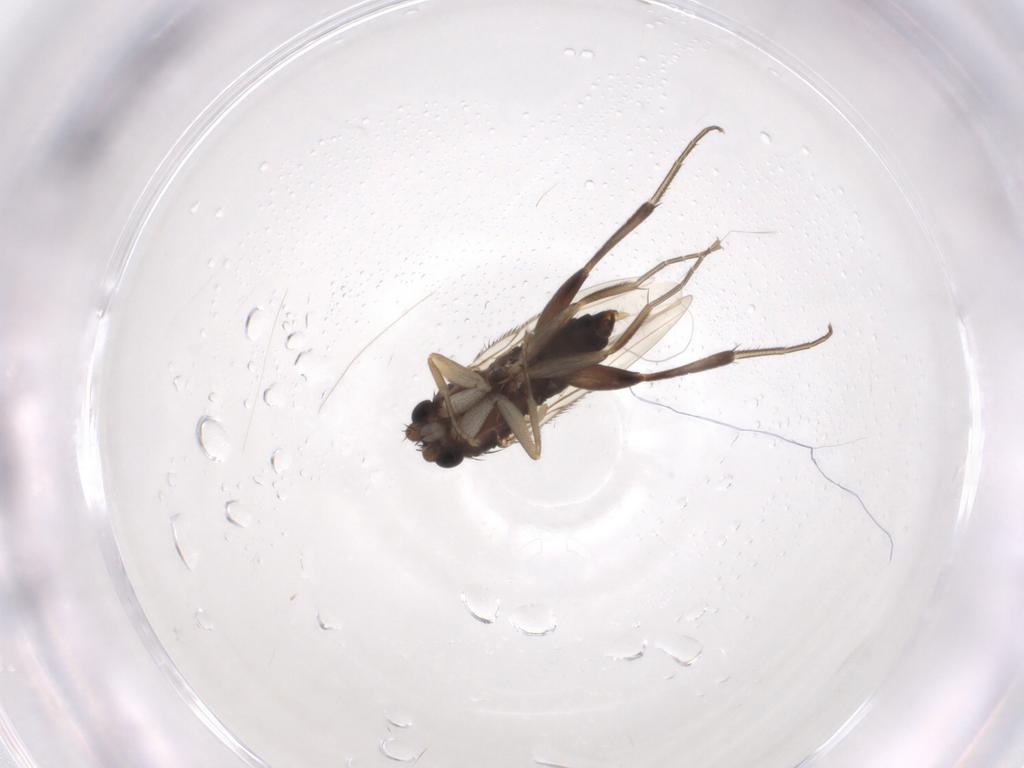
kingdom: Animalia
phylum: Arthropoda
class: Insecta
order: Diptera
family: Phoridae
